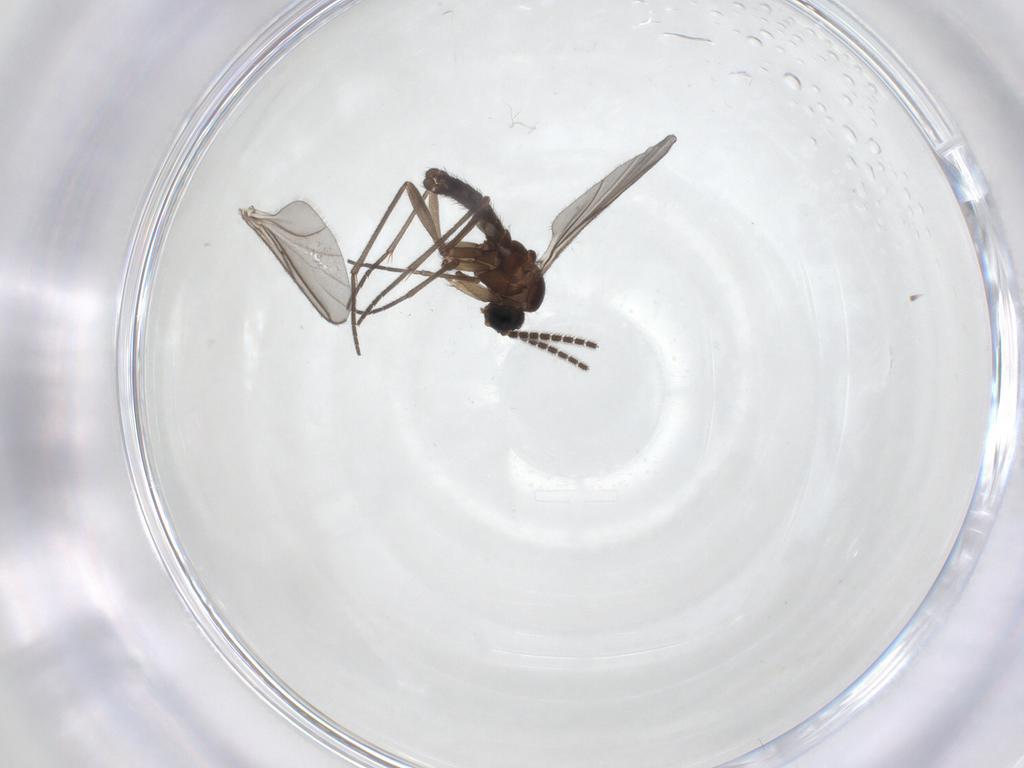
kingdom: Animalia
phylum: Arthropoda
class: Insecta
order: Diptera
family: Sciaridae
